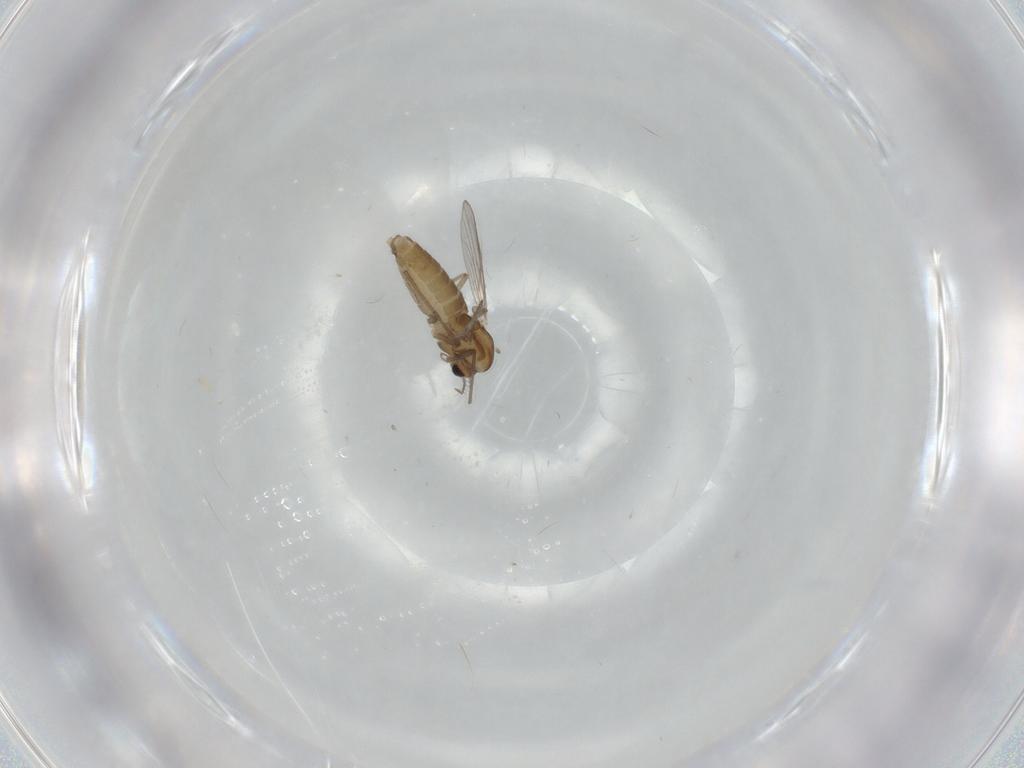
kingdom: Animalia
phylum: Arthropoda
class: Insecta
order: Diptera
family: Chironomidae
